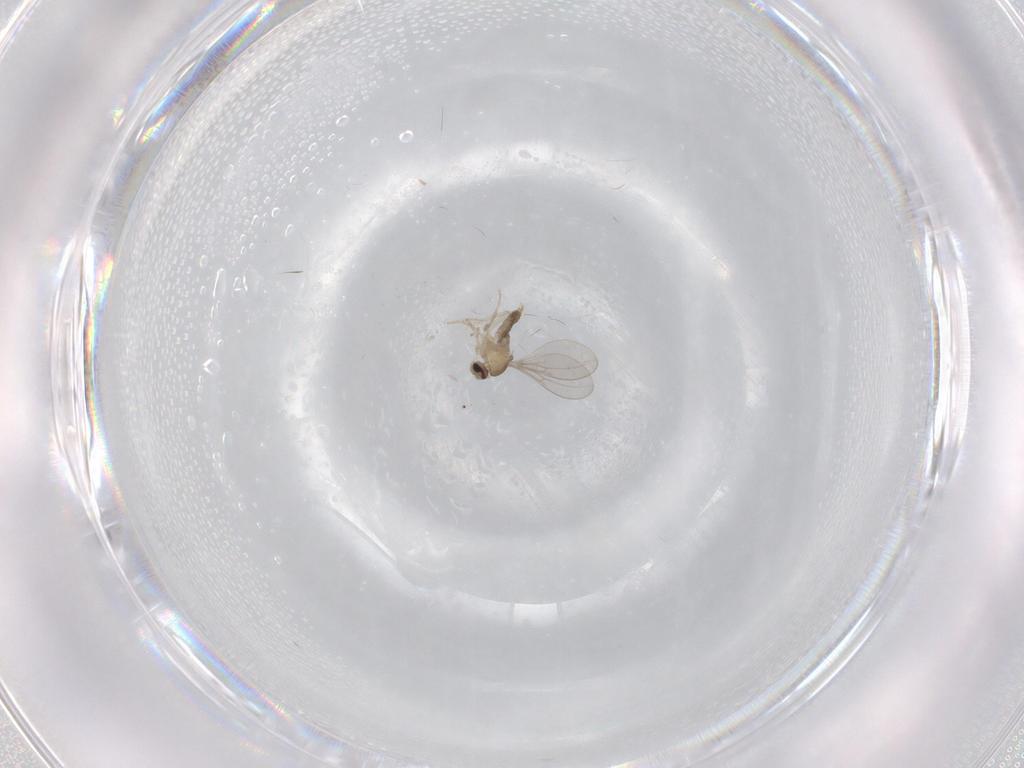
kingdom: Animalia
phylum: Arthropoda
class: Insecta
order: Diptera
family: Cecidomyiidae
